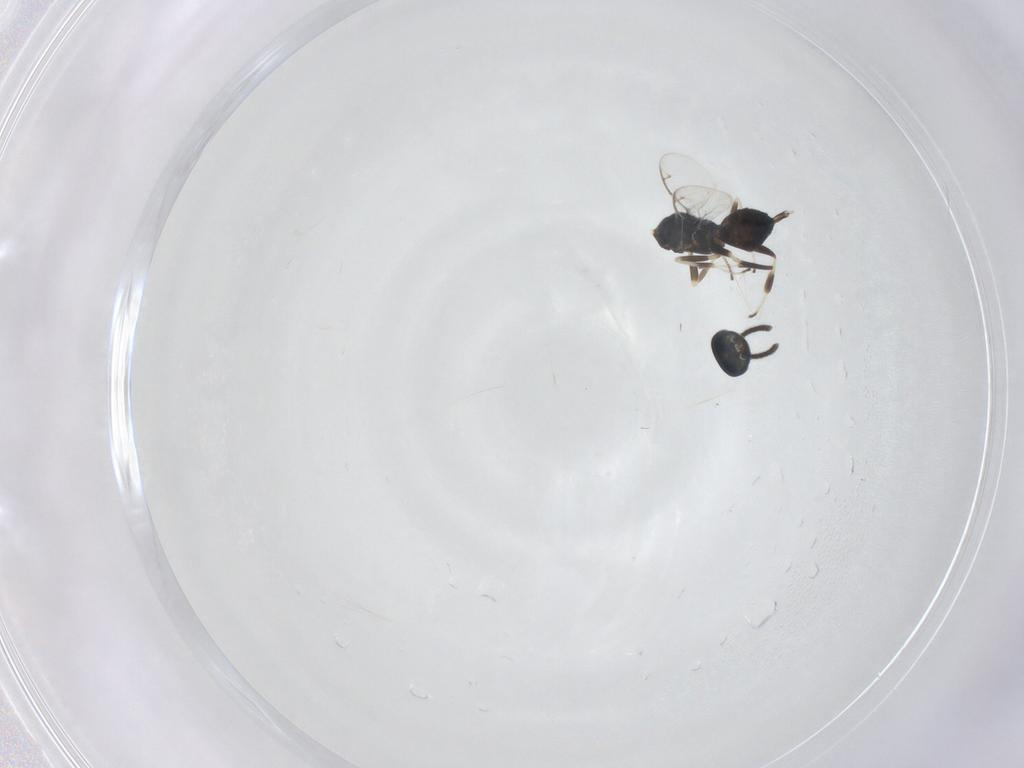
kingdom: Animalia
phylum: Arthropoda
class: Insecta
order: Hymenoptera
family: Eupelmidae
